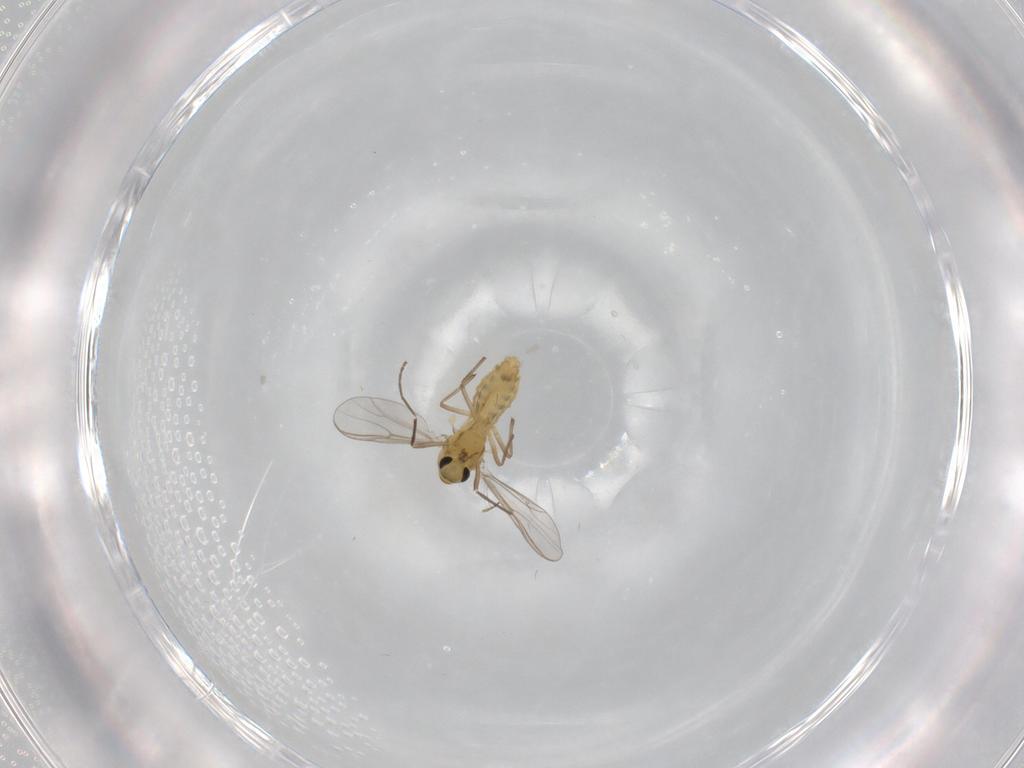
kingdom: Animalia
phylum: Arthropoda
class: Insecta
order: Diptera
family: Chironomidae
